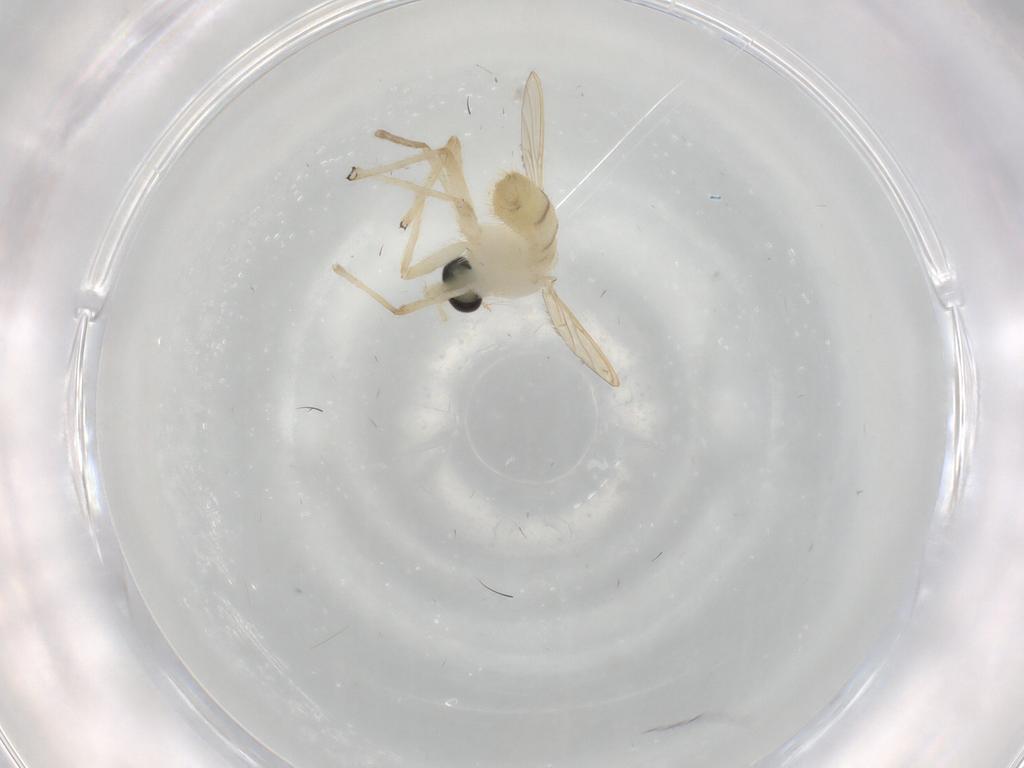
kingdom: Animalia
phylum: Arthropoda
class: Insecta
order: Diptera
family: Chironomidae
